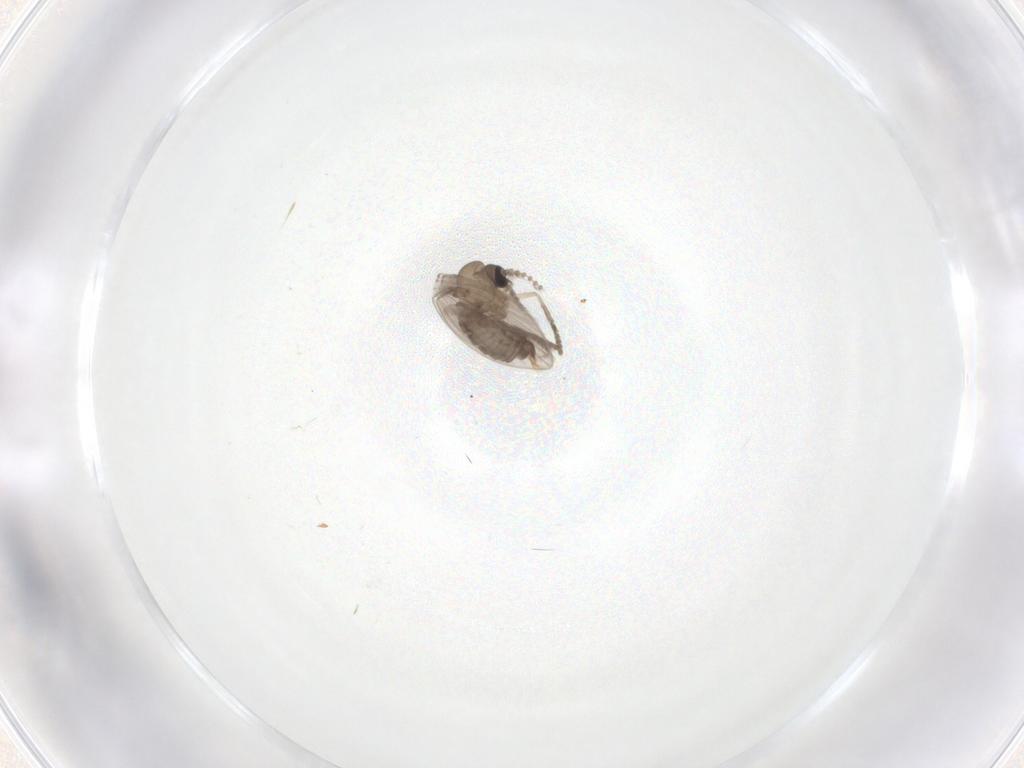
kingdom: Animalia
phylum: Arthropoda
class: Insecta
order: Diptera
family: Psychodidae
